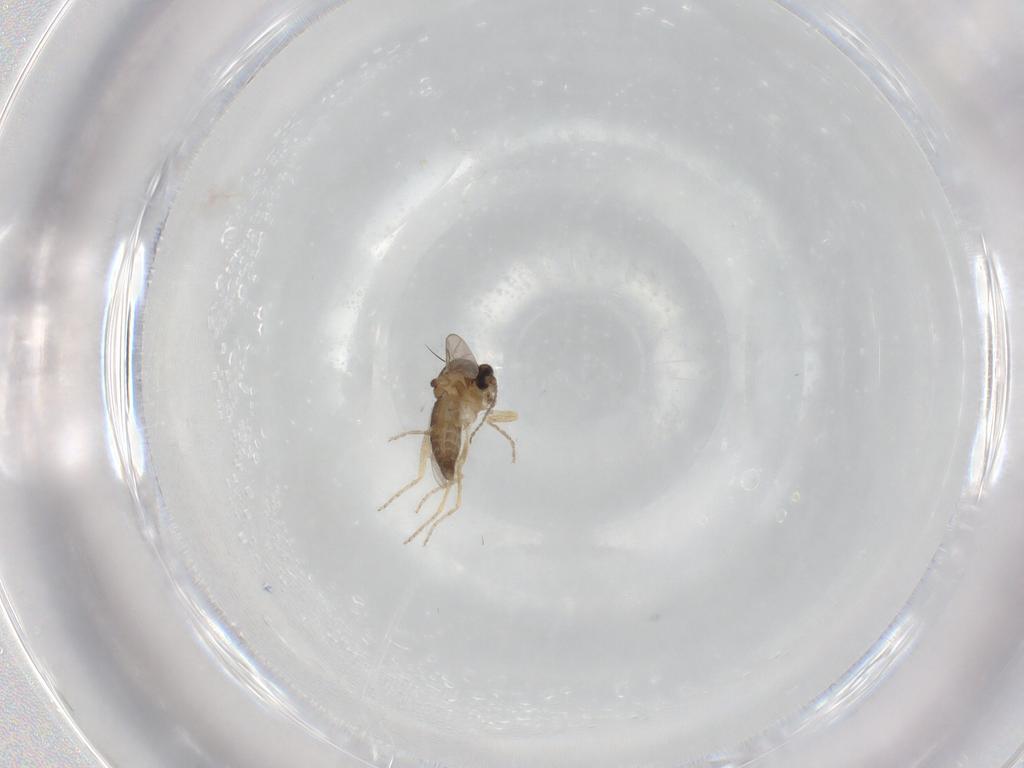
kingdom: Animalia
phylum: Arthropoda
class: Insecta
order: Diptera
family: Ceratopogonidae
